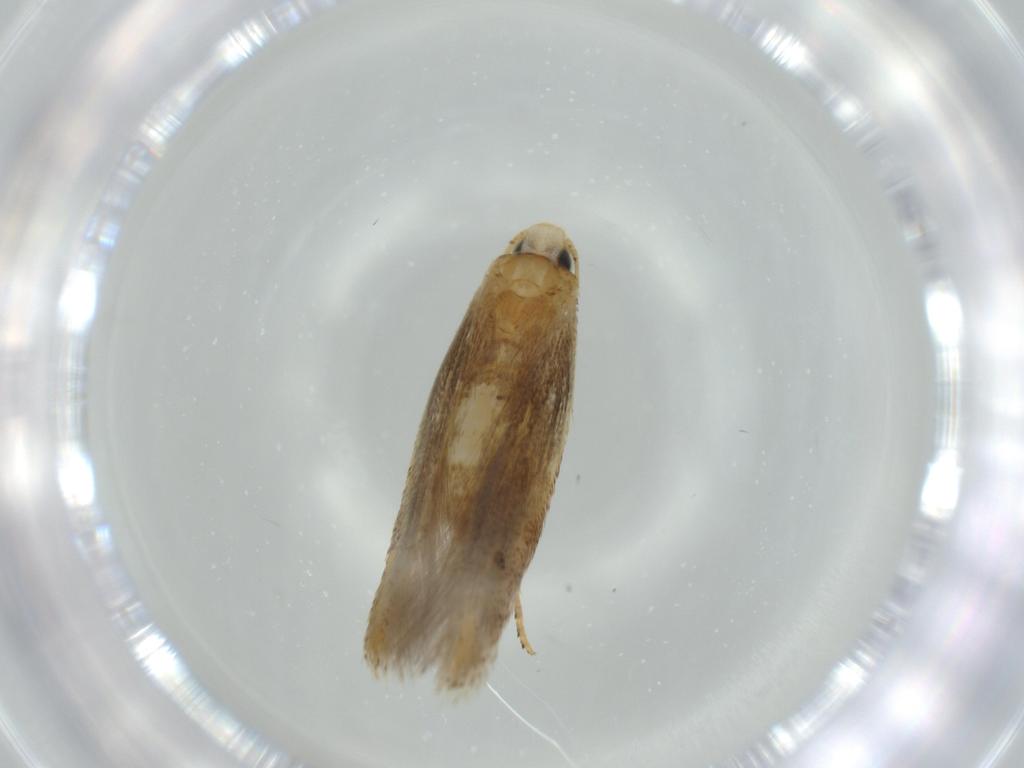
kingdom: Animalia
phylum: Arthropoda
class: Insecta
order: Lepidoptera
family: Tischeriidae
